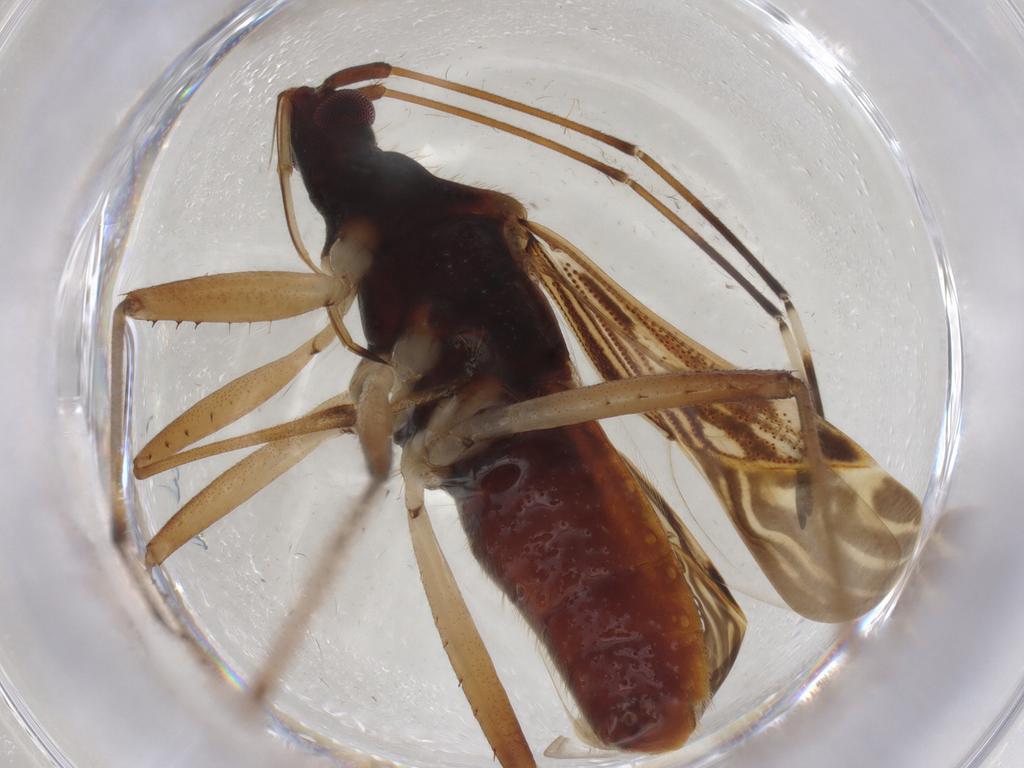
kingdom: Animalia
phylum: Arthropoda
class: Insecta
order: Hemiptera
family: Rhyparochromidae
